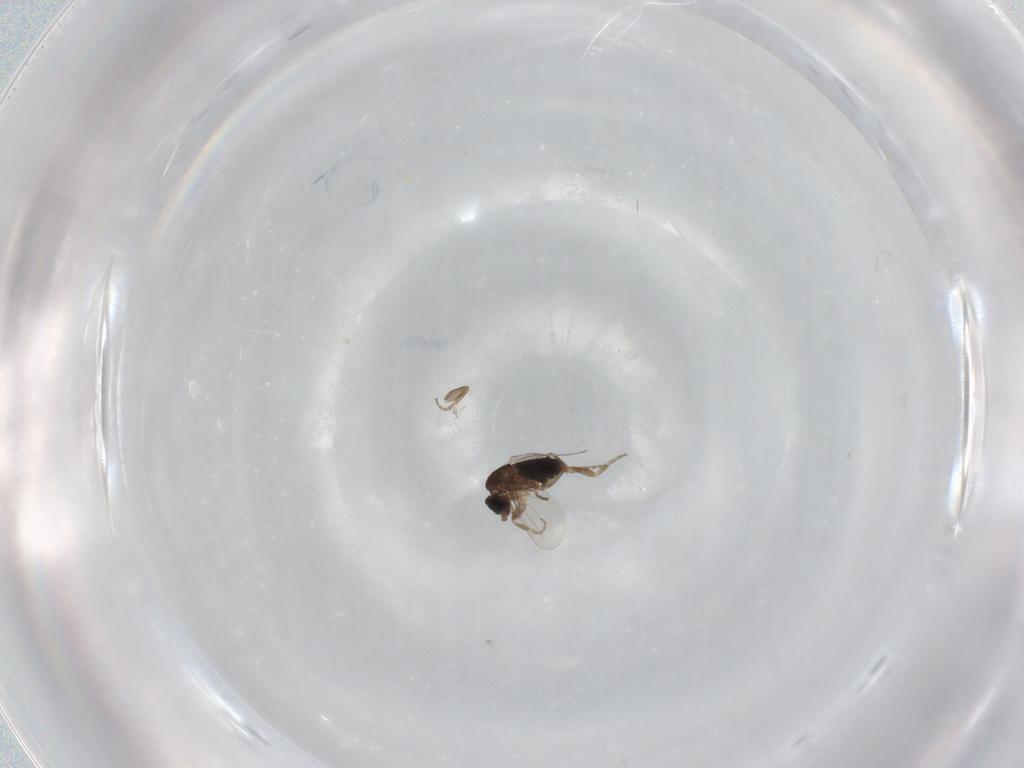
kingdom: Animalia
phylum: Arthropoda
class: Insecta
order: Diptera
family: Phoridae
